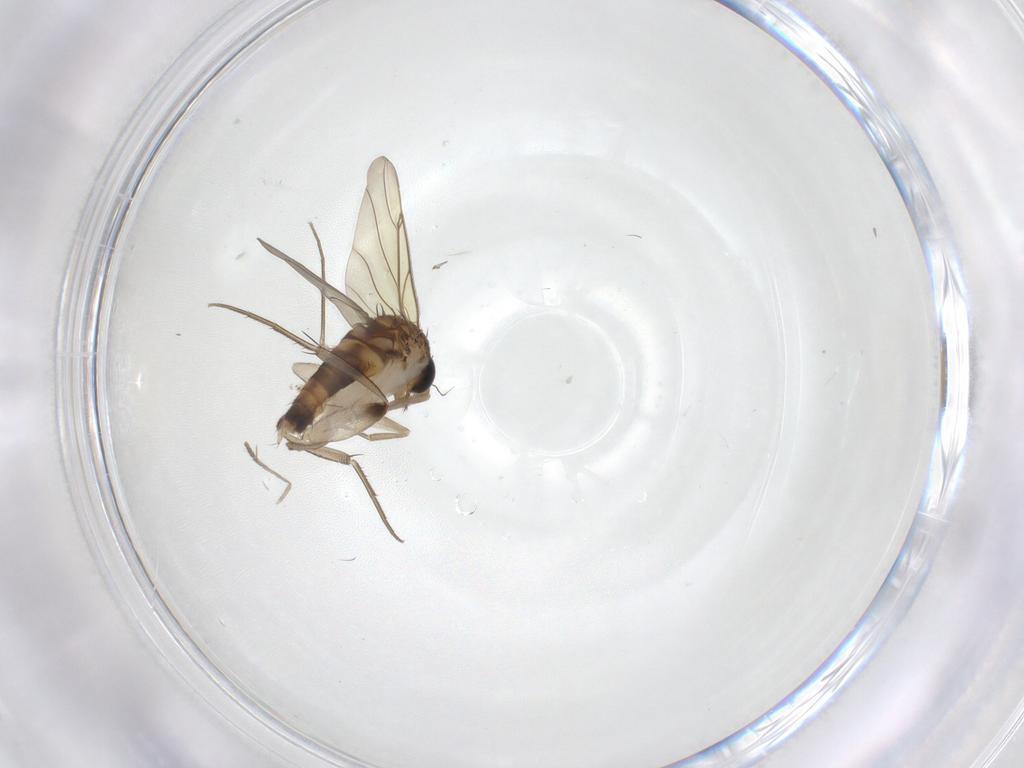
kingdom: Animalia
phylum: Arthropoda
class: Insecta
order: Diptera
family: Phoridae
